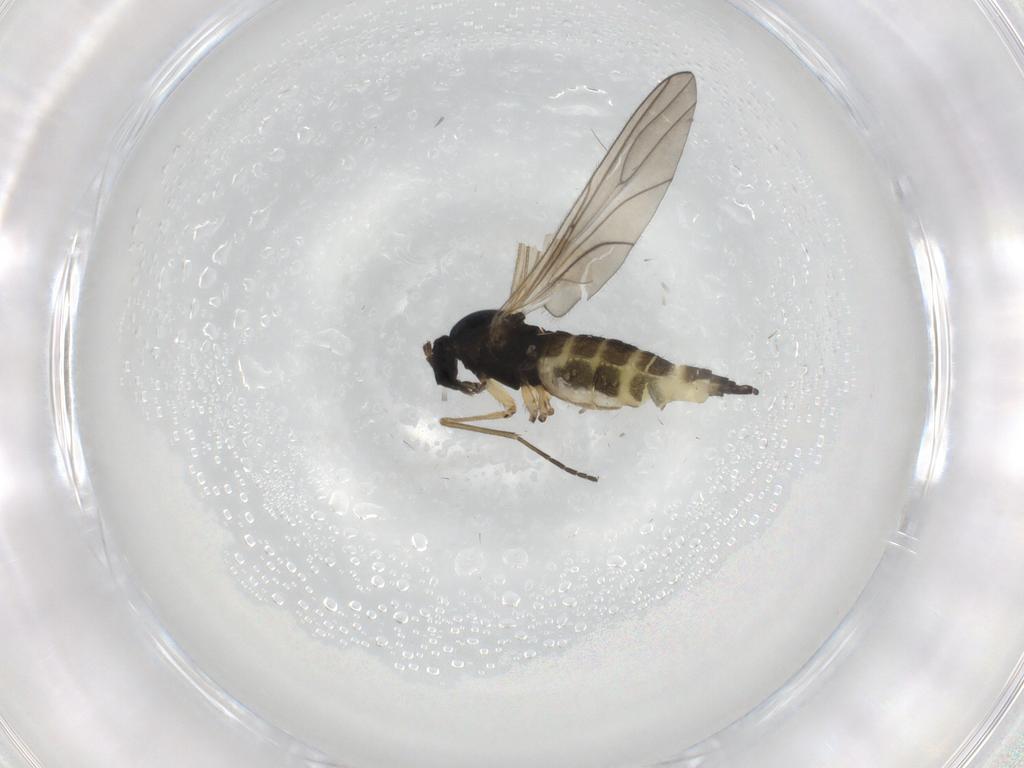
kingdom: Animalia
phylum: Arthropoda
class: Insecta
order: Diptera
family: Sciaridae
